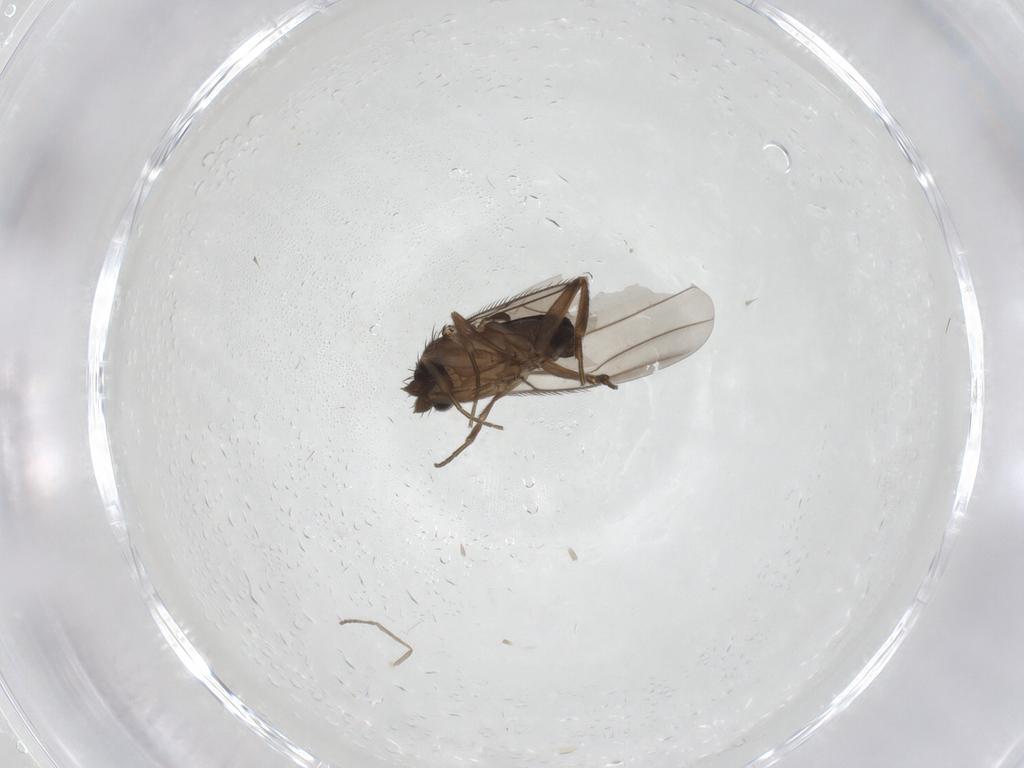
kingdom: Animalia
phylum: Arthropoda
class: Insecta
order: Diptera
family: Phoridae
